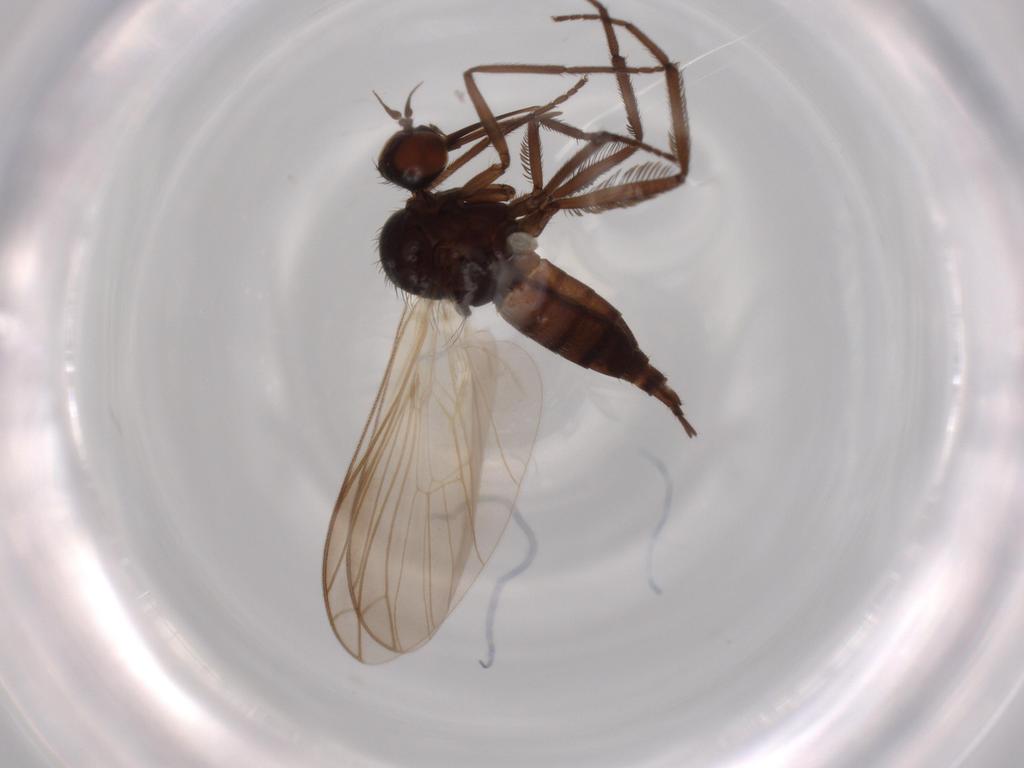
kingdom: Animalia
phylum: Arthropoda
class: Insecta
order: Diptera
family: Empididae
